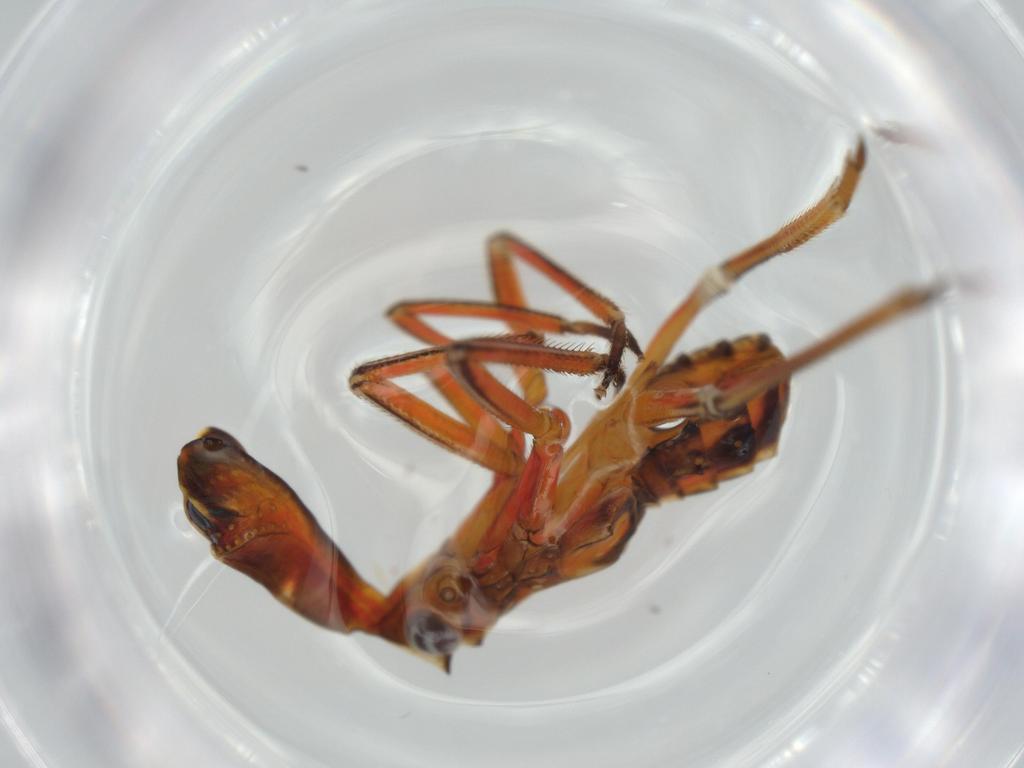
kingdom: Animalia
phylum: Arthropoda
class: Insecta
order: Hemiptera
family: Fulgoridae
